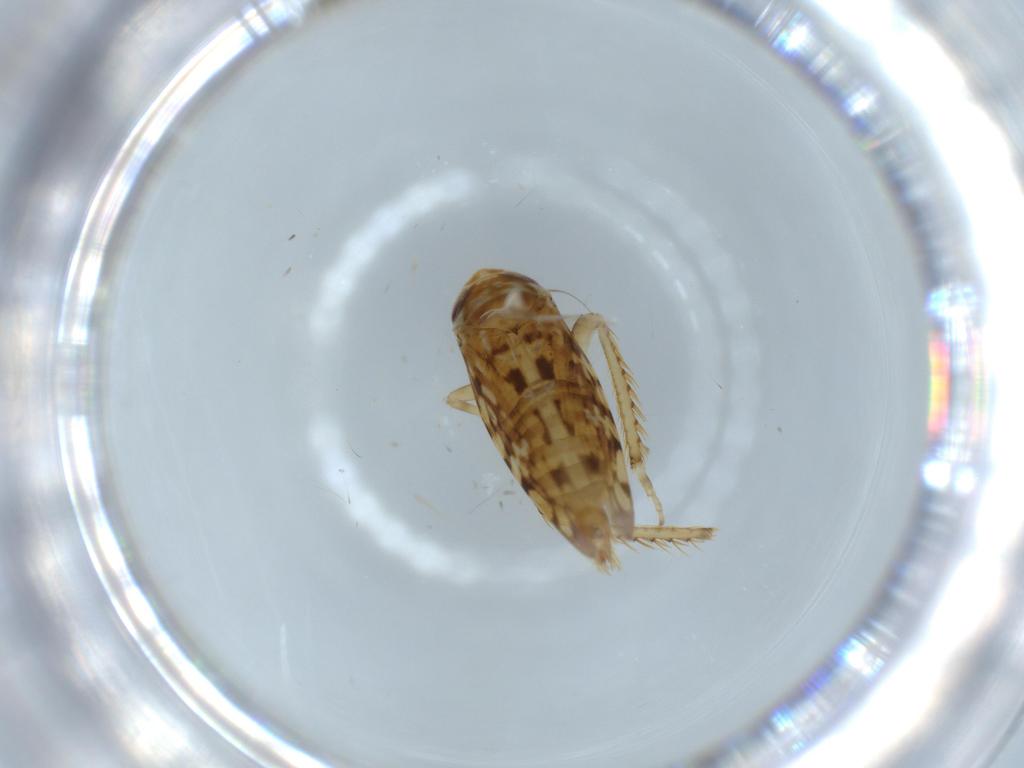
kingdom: Animalia
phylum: Arthropoda
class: Insecta
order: Hemiptera
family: Cicadellidae
